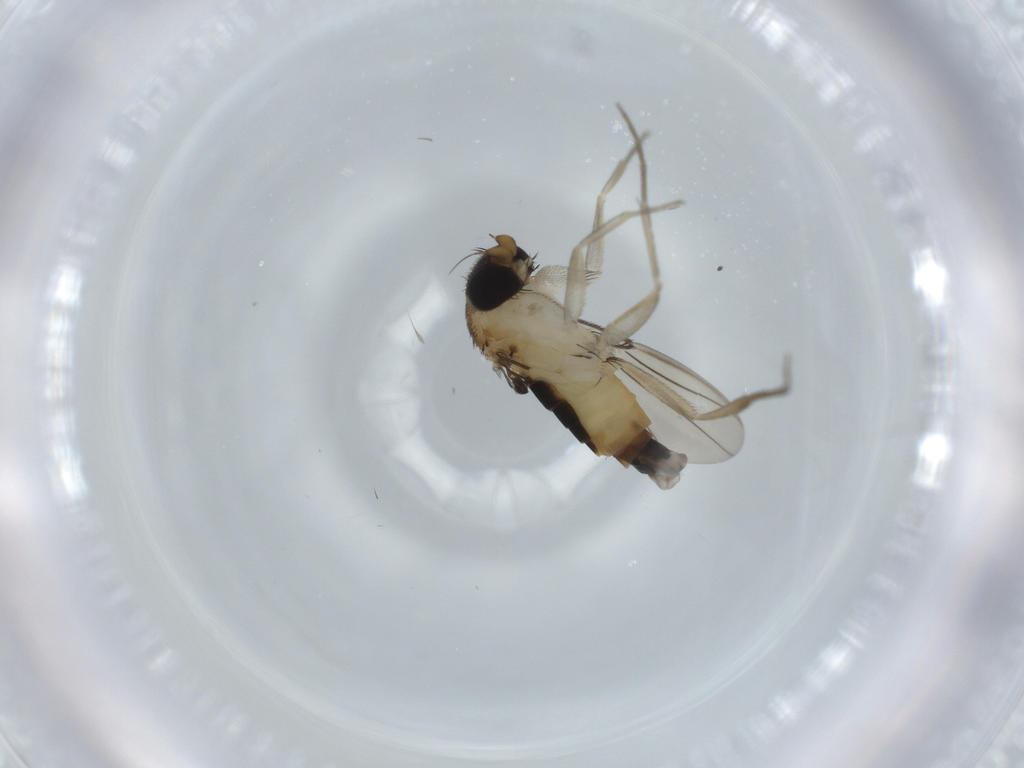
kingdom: Animalia
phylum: Arthropoda
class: Insecta
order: Diptera
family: Phoridae
